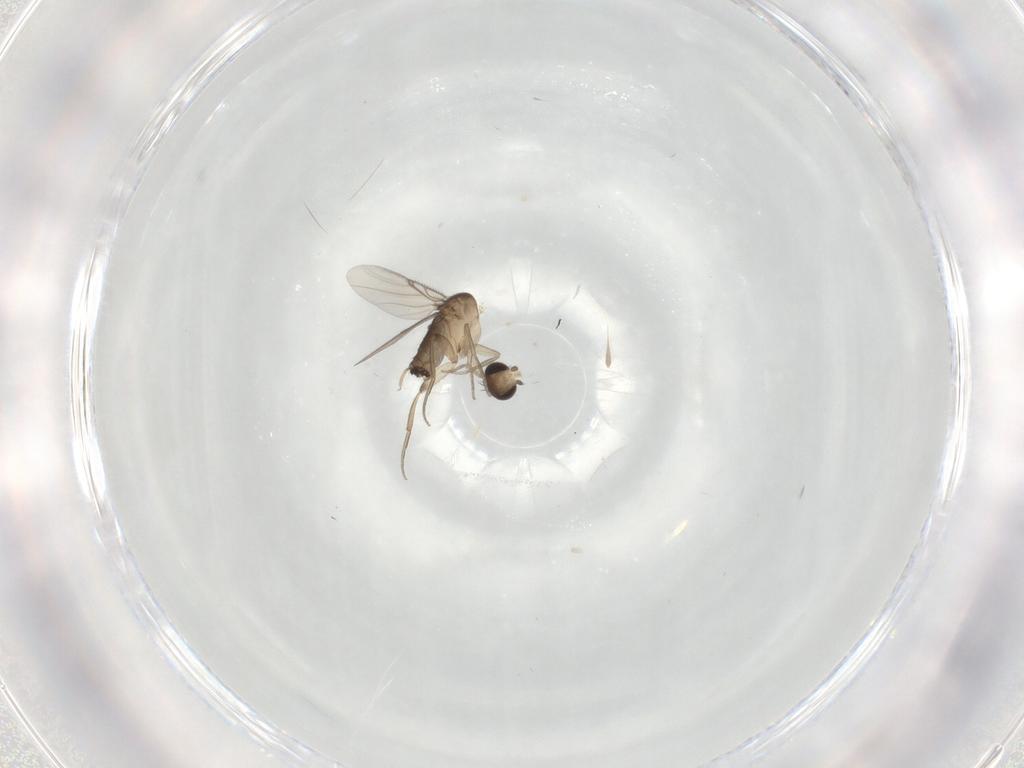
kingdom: Animalia
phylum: Arthropoda
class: Insecta
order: Diptera
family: Phoridae
